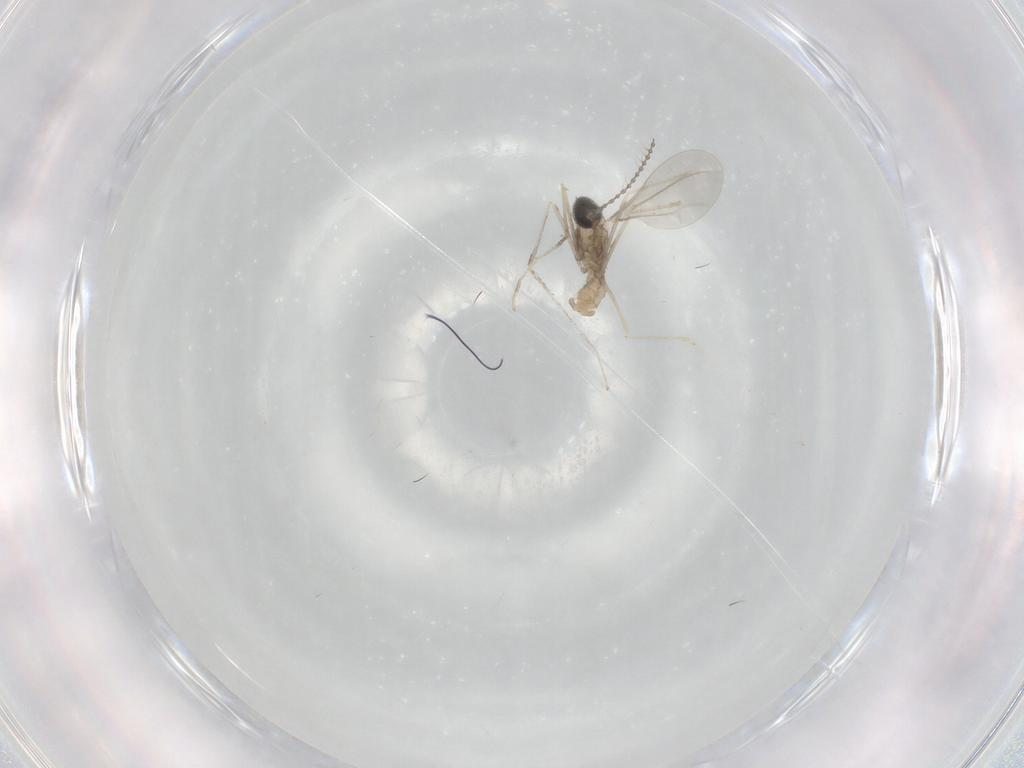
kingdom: Animalia
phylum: Arthropoda
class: Insecta
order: Diptera
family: Cecidomyiidae
